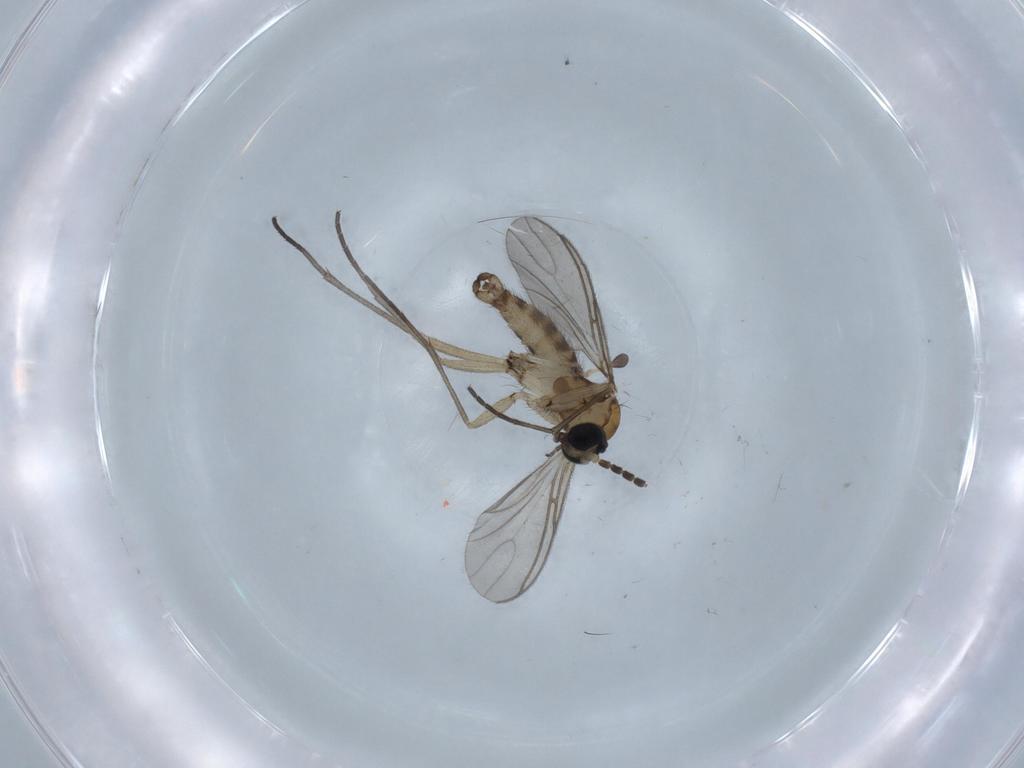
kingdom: Animalia
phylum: Arthropoda
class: Insecta
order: Diptera
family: Sciaridae
